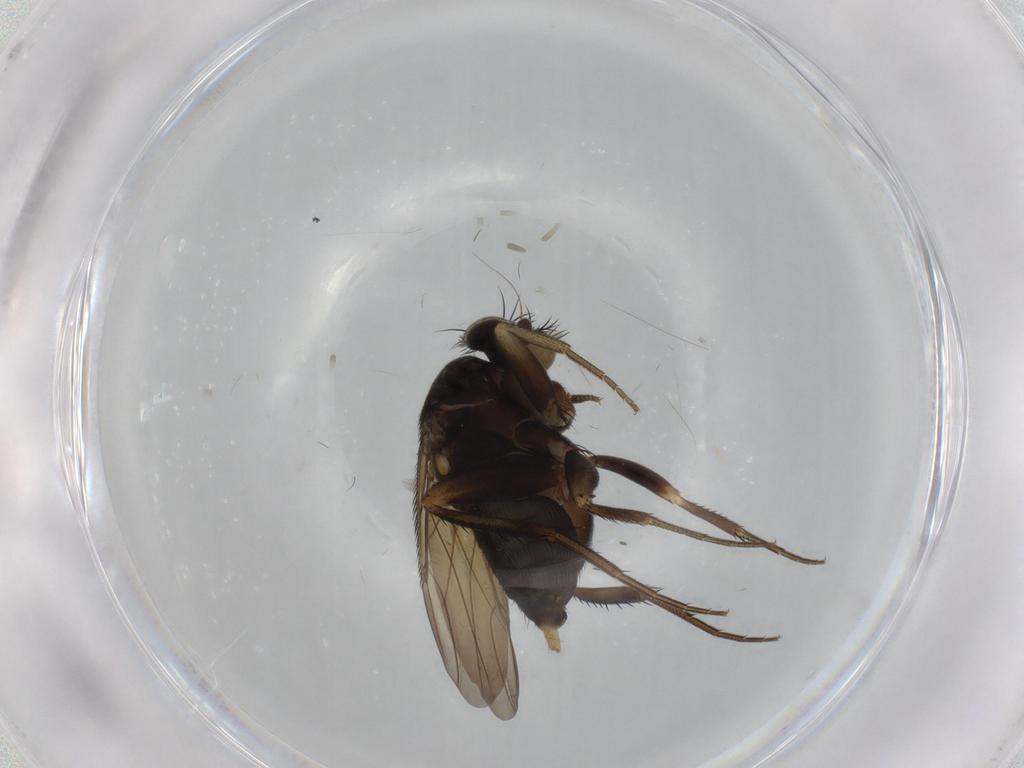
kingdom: Animalia
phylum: Arthropoda
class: Insecta
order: Diptera
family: Phoridae
